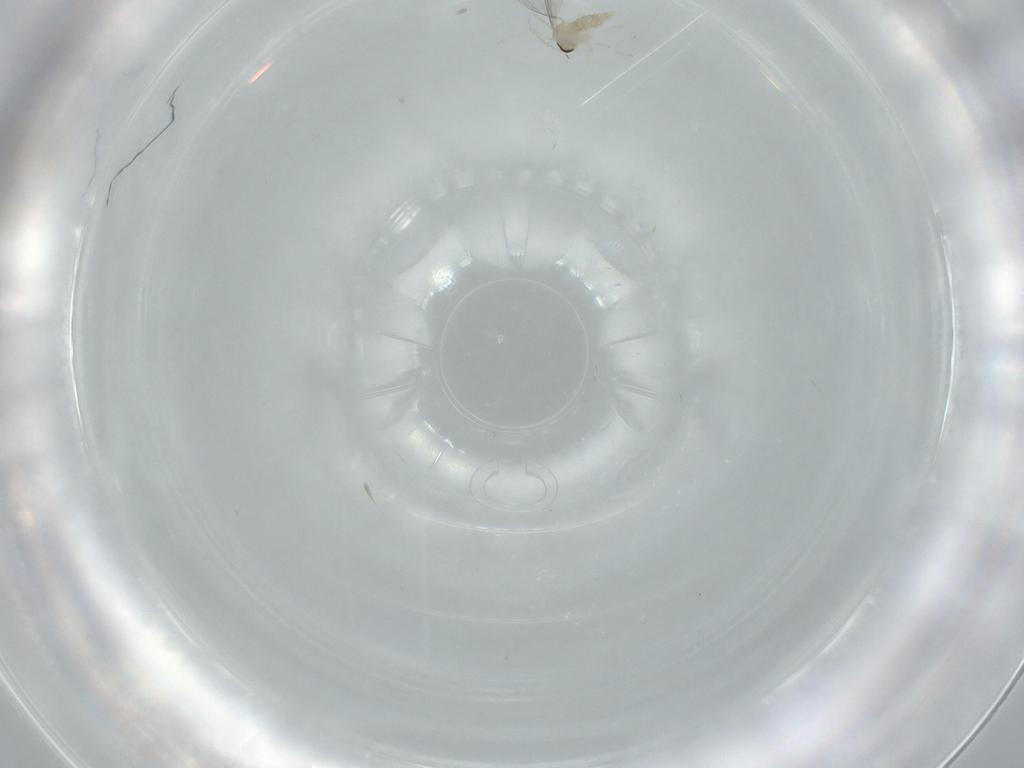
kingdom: Animalia
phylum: Arthropoda
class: Insecta
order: Diptera
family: Cecidomyiidae
